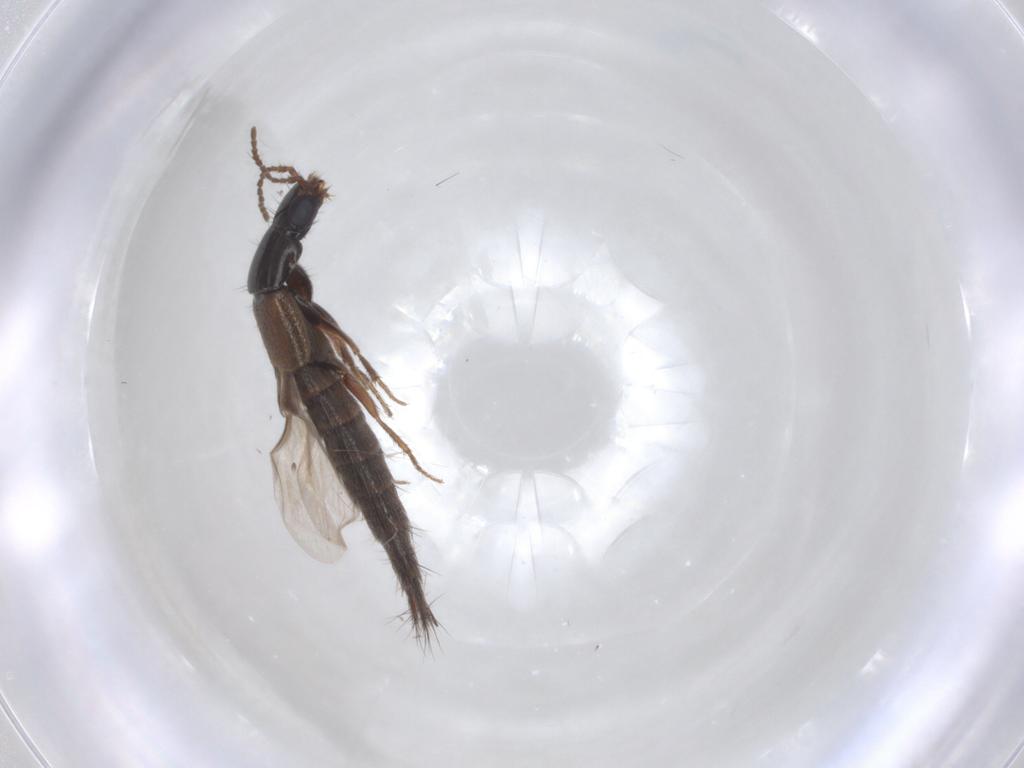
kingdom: Animalia
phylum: Arthropoda
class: Insecta
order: Coleoptera
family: Staphylinidae
